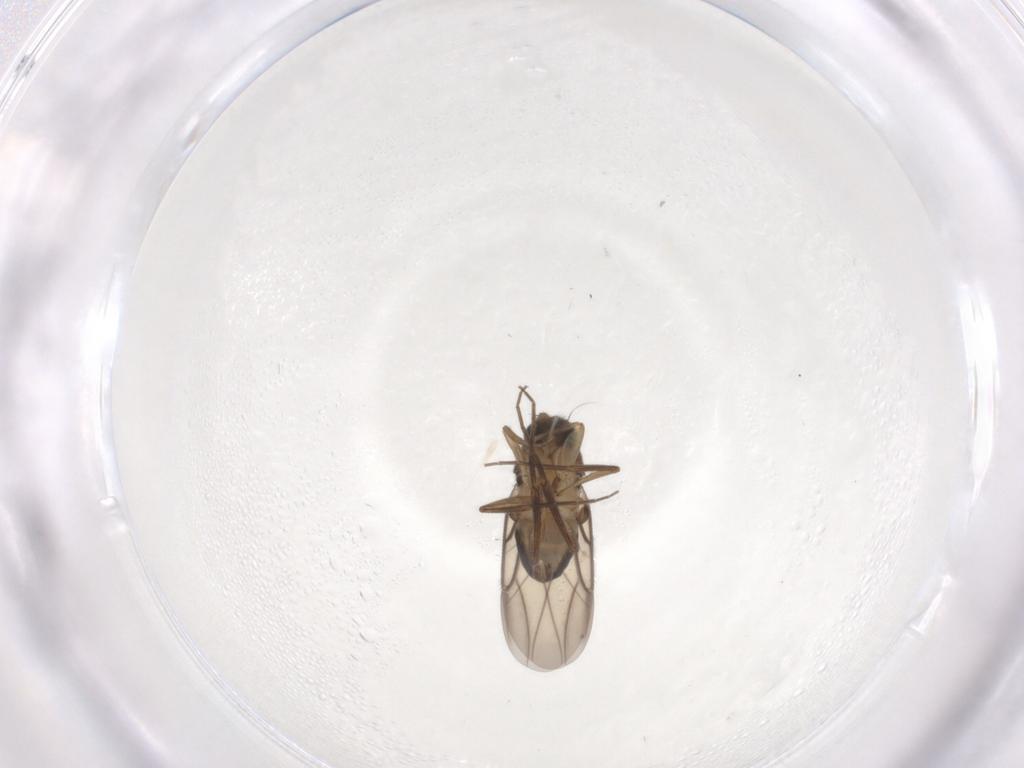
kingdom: Animalia
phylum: Arthropoda
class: Insecta
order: Diptera
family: Phoridae
